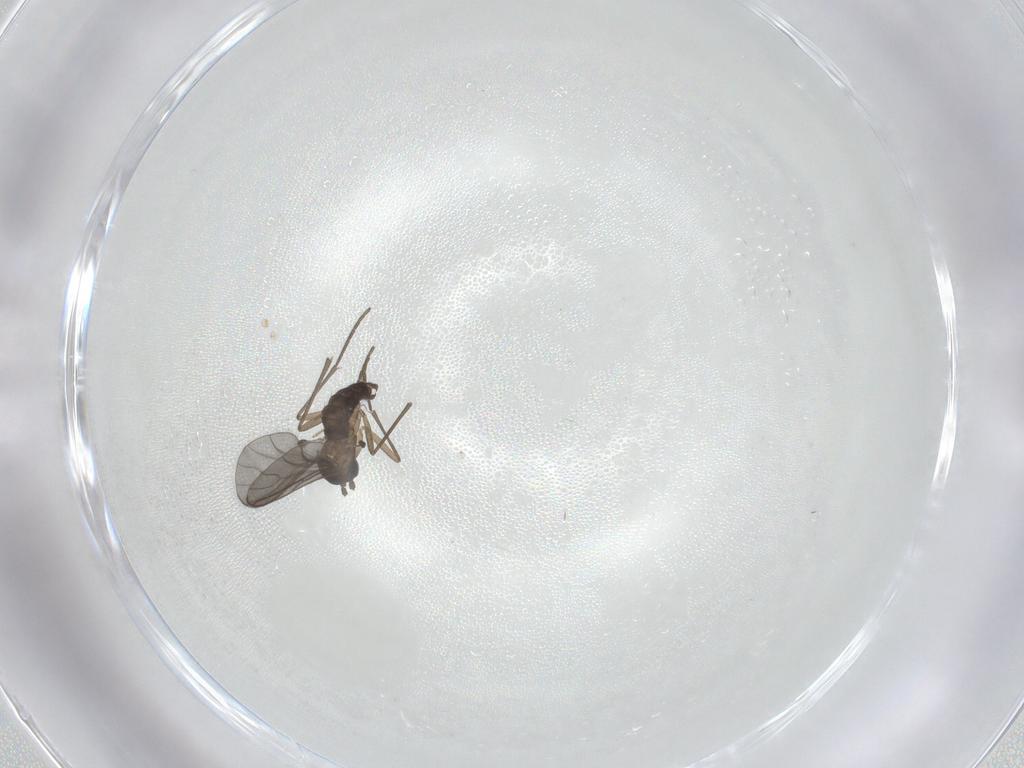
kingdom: Animalia
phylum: Arthropoda
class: Insecta
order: Diptera
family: Sciaridae
